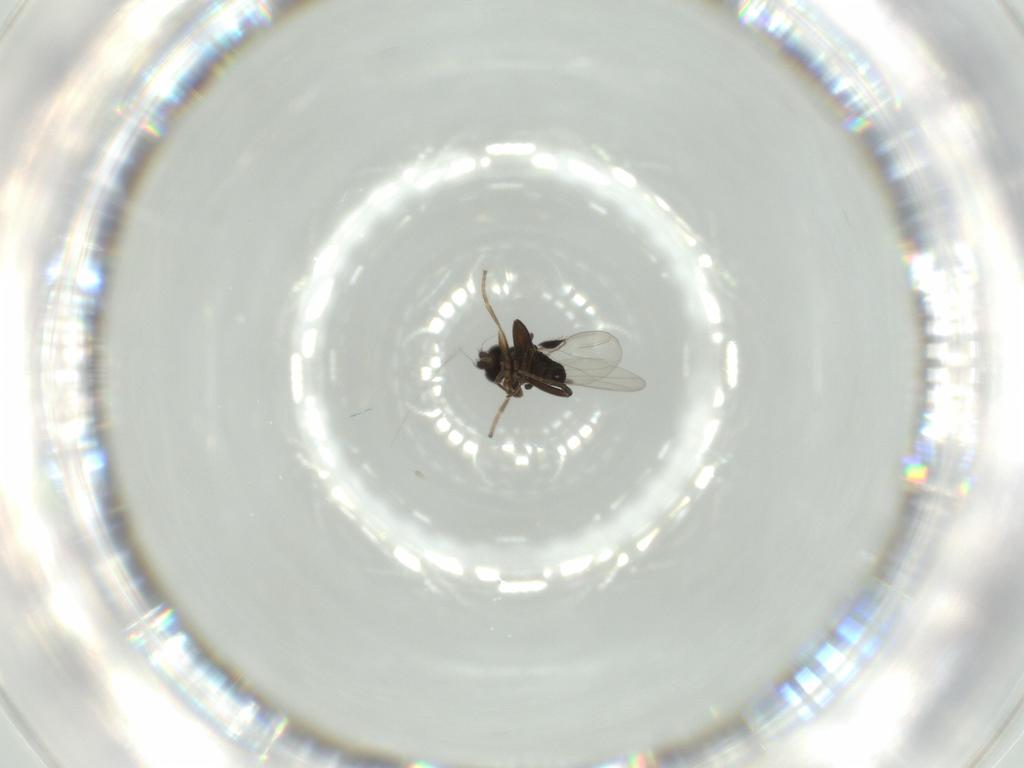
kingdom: Animalia
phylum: Arthropoda
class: Insecta
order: Diptera
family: Phoridae
